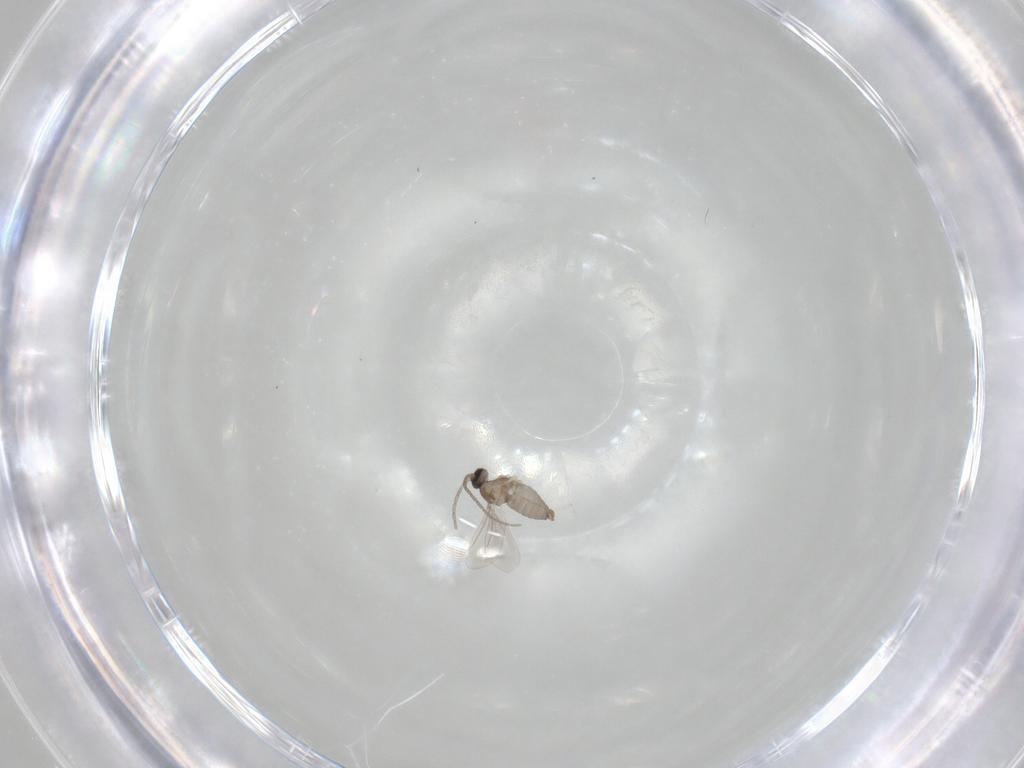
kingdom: Animalia
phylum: Arthropoda
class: Insecta
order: Diptera
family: Cecidomyiidae
